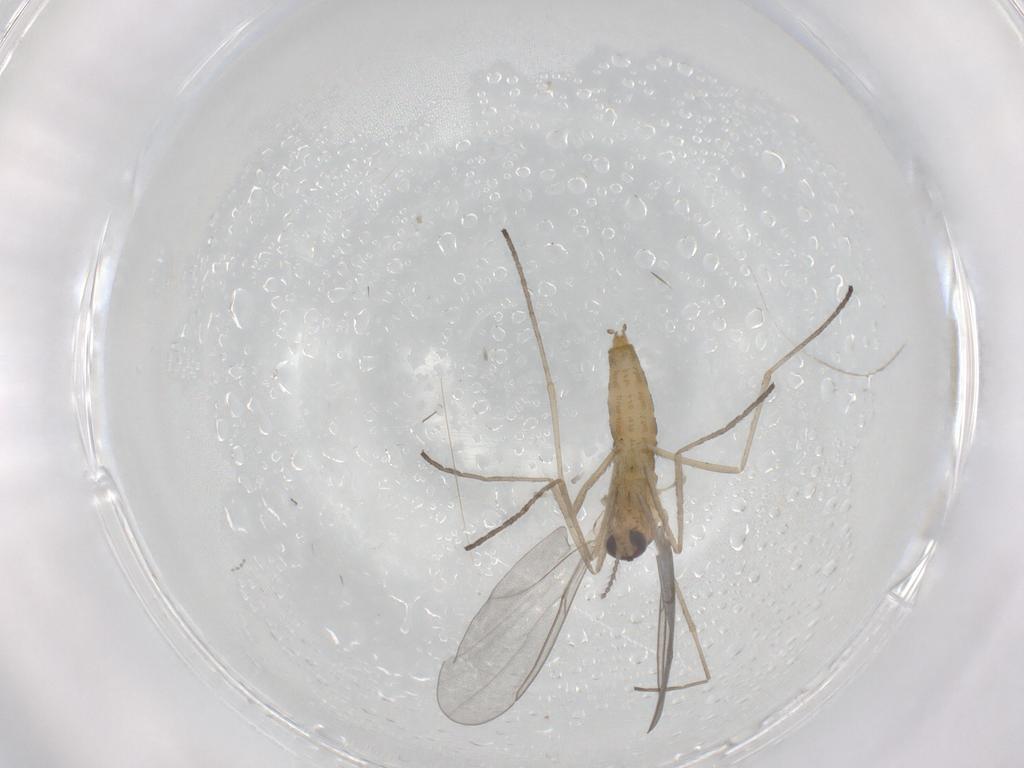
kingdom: Animalia
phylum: Arthropoda
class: Insecta
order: Diptera
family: Cecidomyiidae
